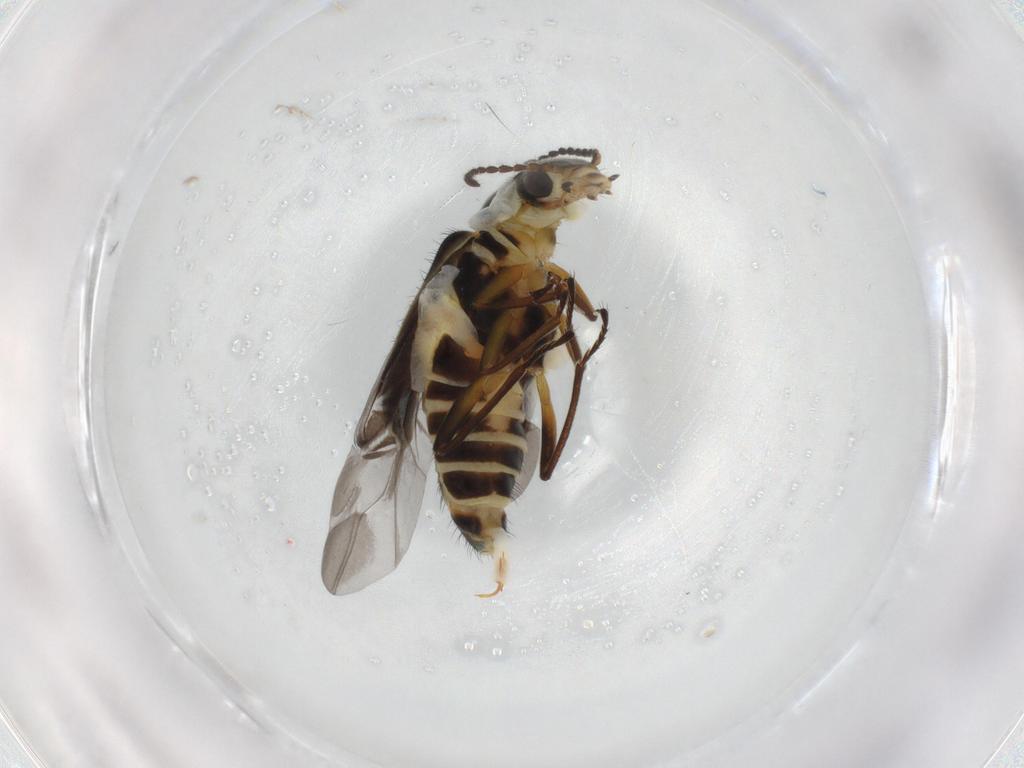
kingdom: Animalia
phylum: Arthropoda
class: Insecta
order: Coleoptera
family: Melyridae
